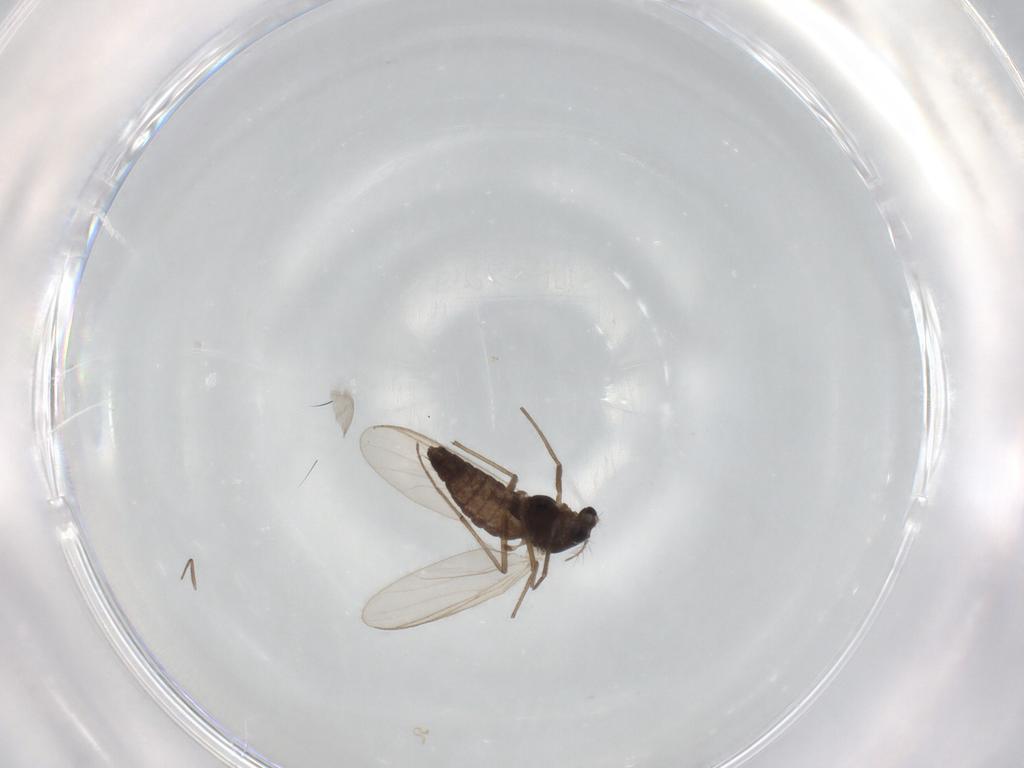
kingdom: Animalia
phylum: Arthropoda
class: Insecta
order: Diptera
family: Chironomidae
